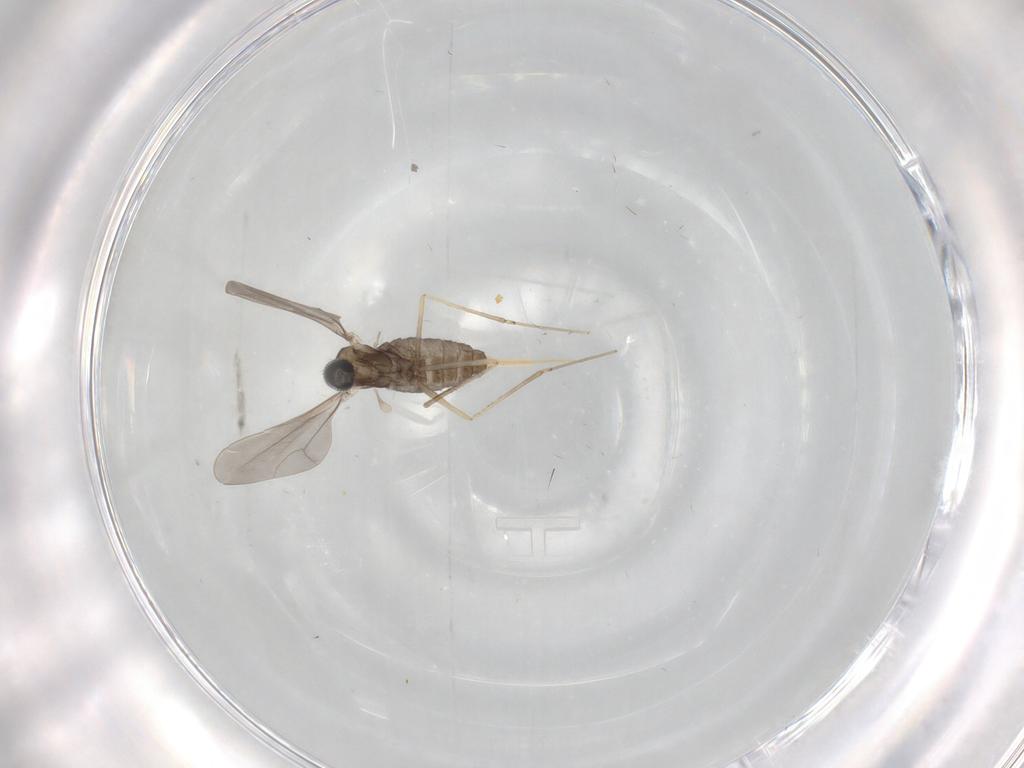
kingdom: Animalia
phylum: Arthropoda
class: Insecta
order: Diptera
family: Cecidomyiidae
